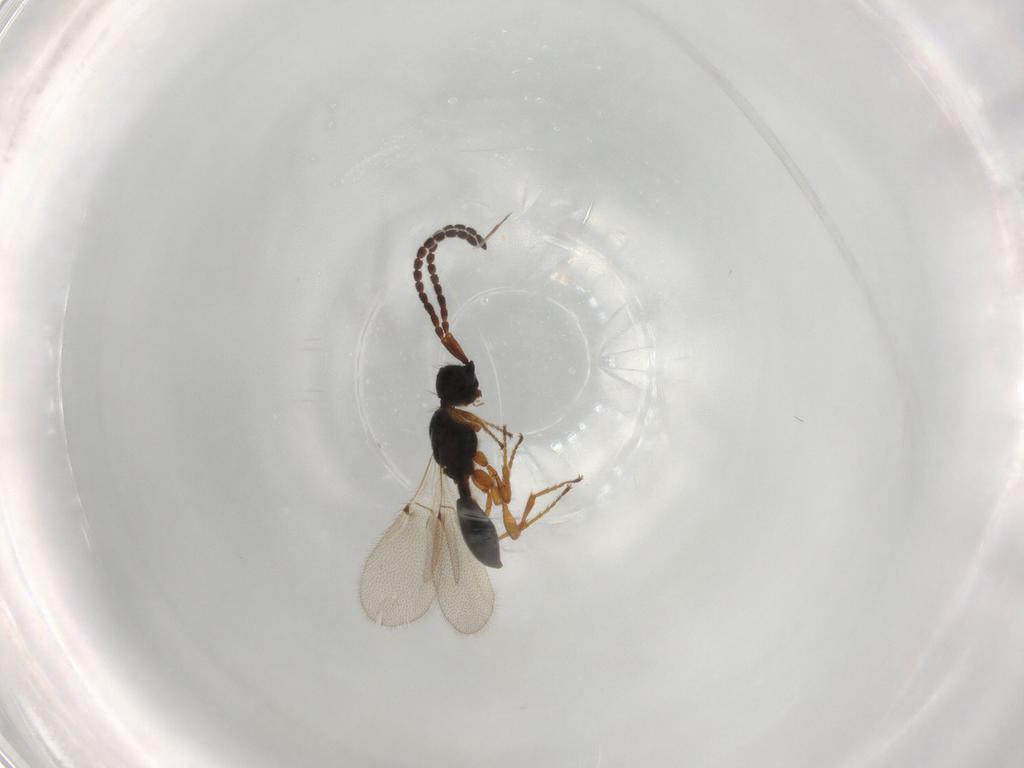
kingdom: Animalia
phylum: Arthropoda
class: Insecta
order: Hymenoptera
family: Diapriidae
